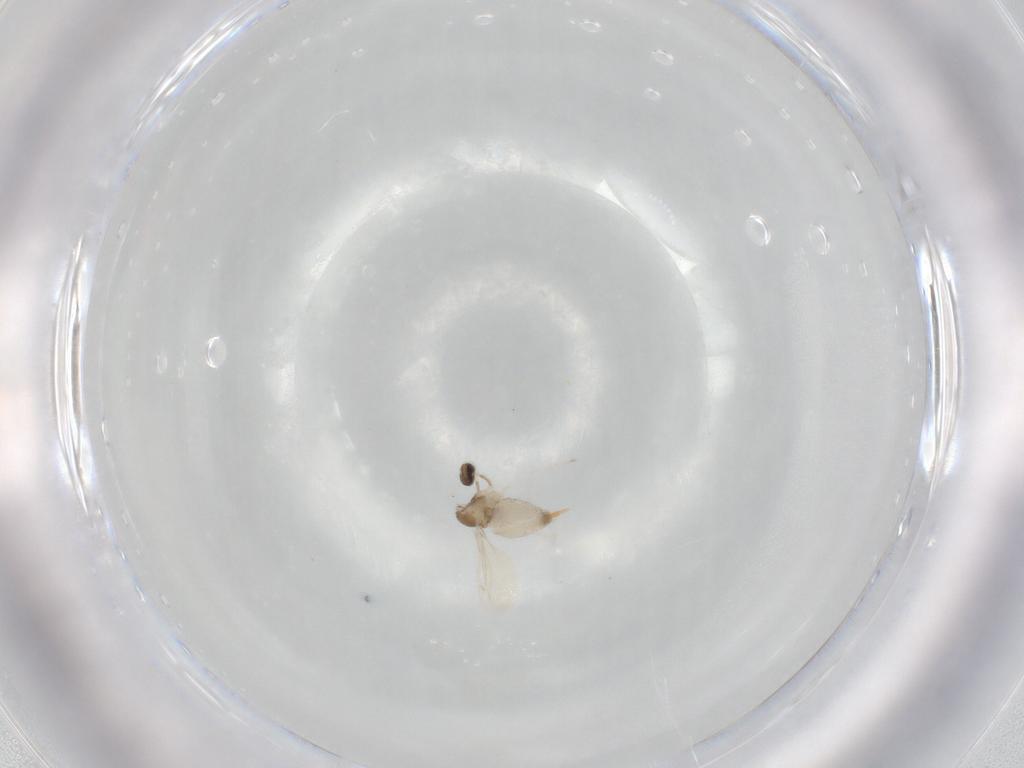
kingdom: Animalia
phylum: Arthropoda
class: Insecta
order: Diptera
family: Cecidomyiidae
